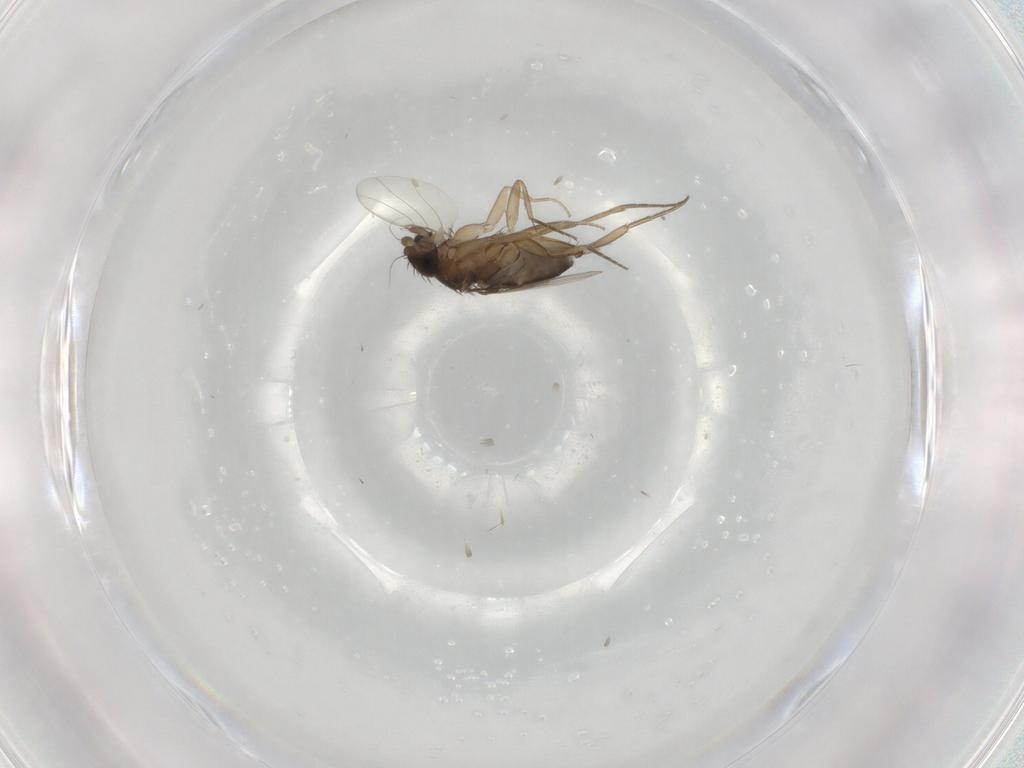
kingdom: Animalia
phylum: Arthropoda
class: Insecta
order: Diptera
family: Phoridae
